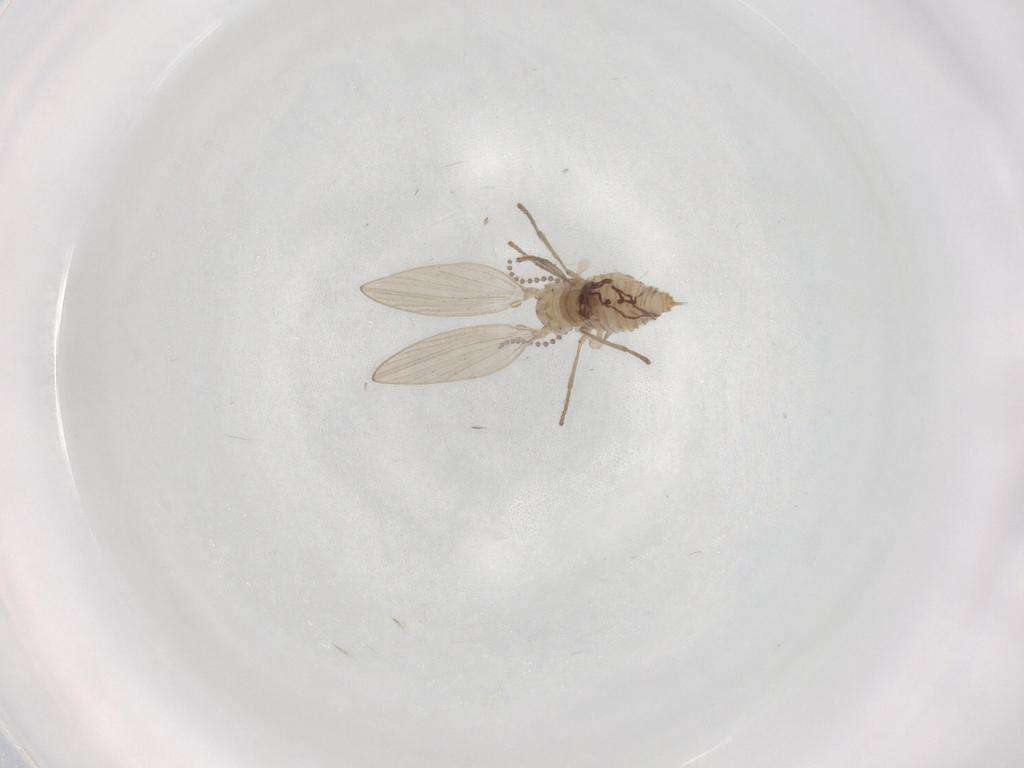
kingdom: Animalia
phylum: Arthropoda
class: Insecta
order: Diptera
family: Psychodidae
